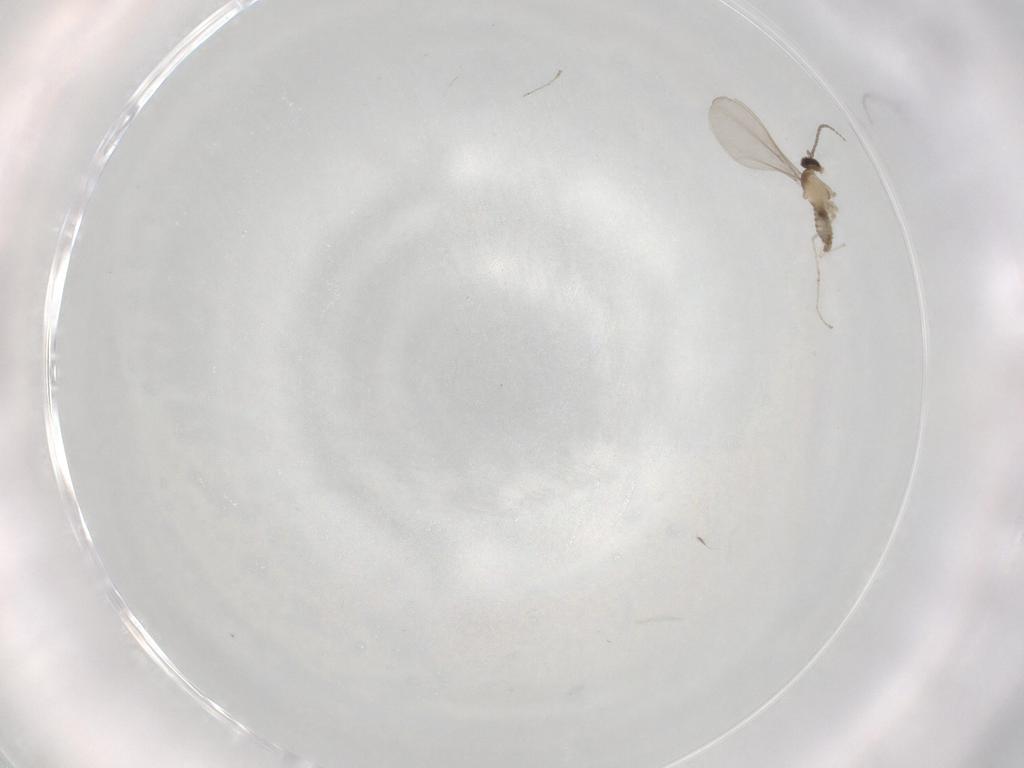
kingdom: Animalia
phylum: Arthropoda
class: Insecta
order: Diptera
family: Cecidomyiidae
